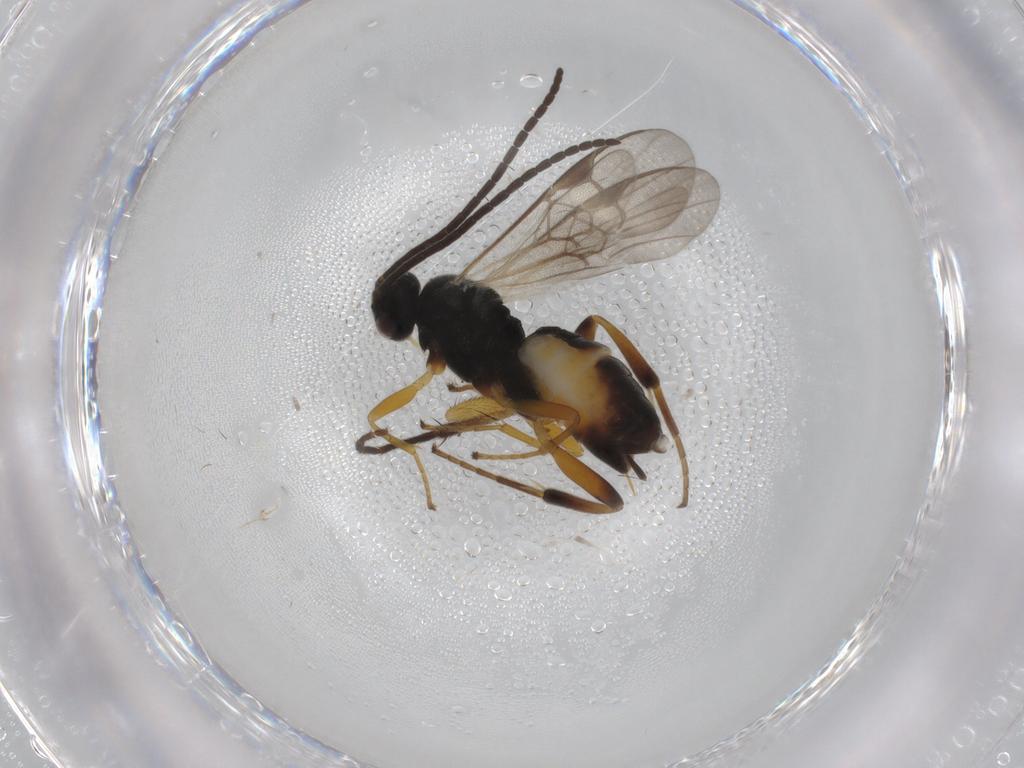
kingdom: Animalia
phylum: Arthropoda
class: Insecta
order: Hymenoptera
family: Braconidae
